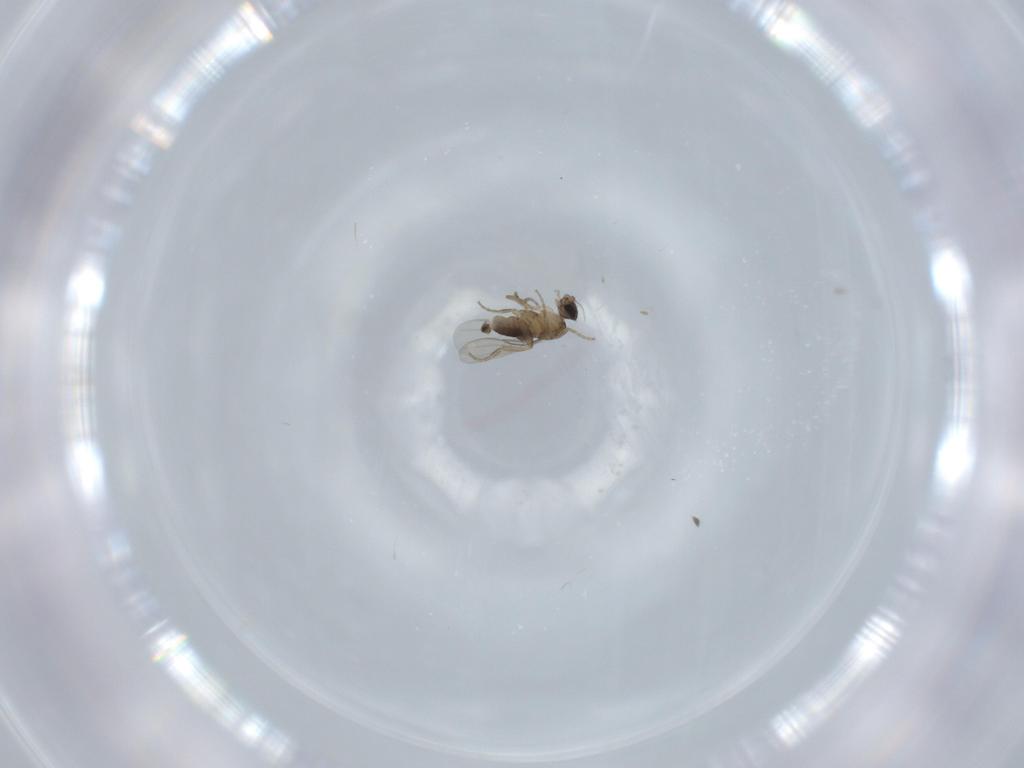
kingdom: Animalia
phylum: Arthropoda
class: Insecta
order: Diptera
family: Phoridae
